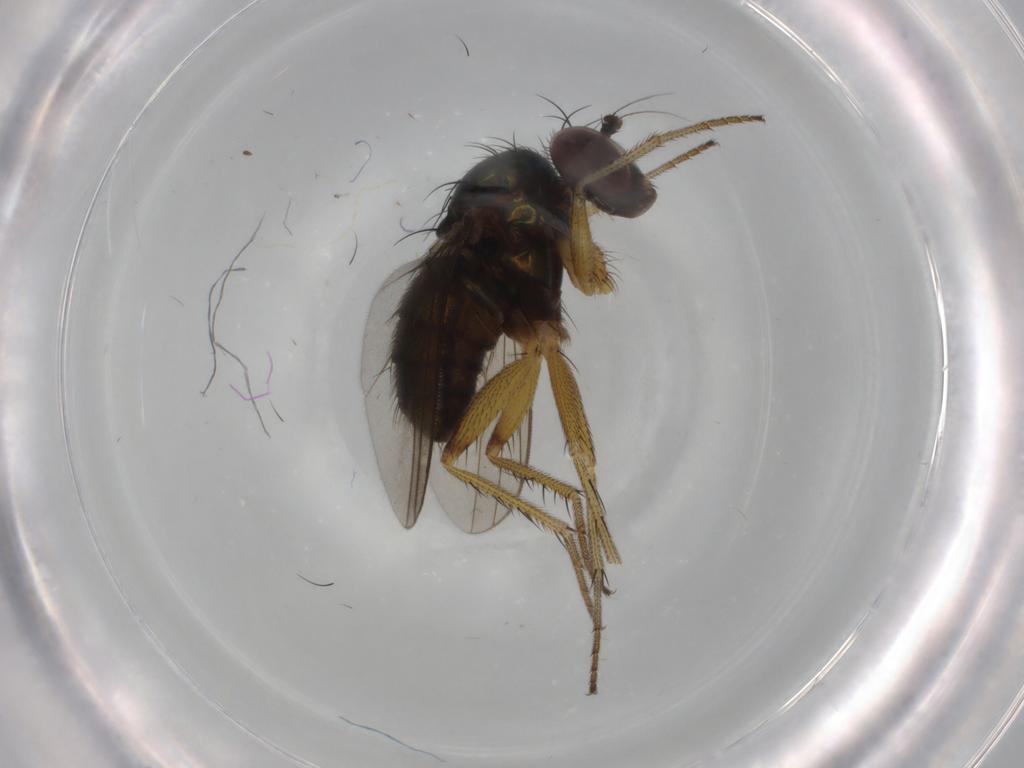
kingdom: Animalia
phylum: Arthropoda
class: Insecta
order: Diptera
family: Dolichopodidae
